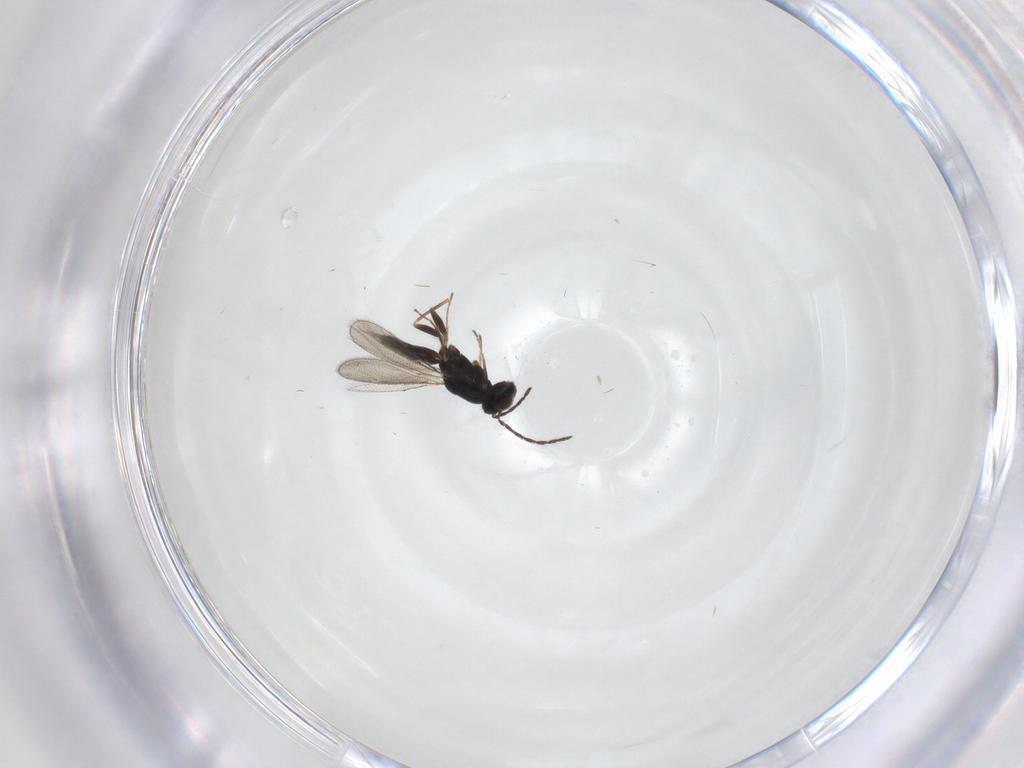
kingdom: Animalia
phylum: Arthropoda
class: Insecta
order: Hymenoptera
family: Eulophidae
